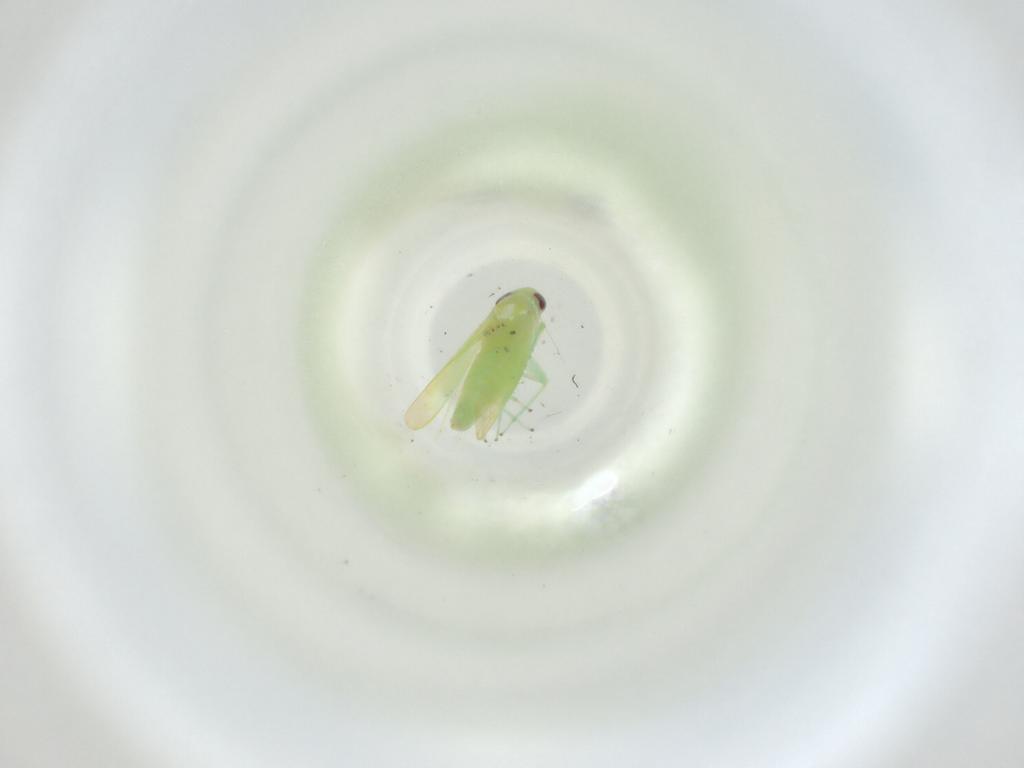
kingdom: Animalia
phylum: Arthropoda
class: Insecta
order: Hemiptera
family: Cicadellidae
